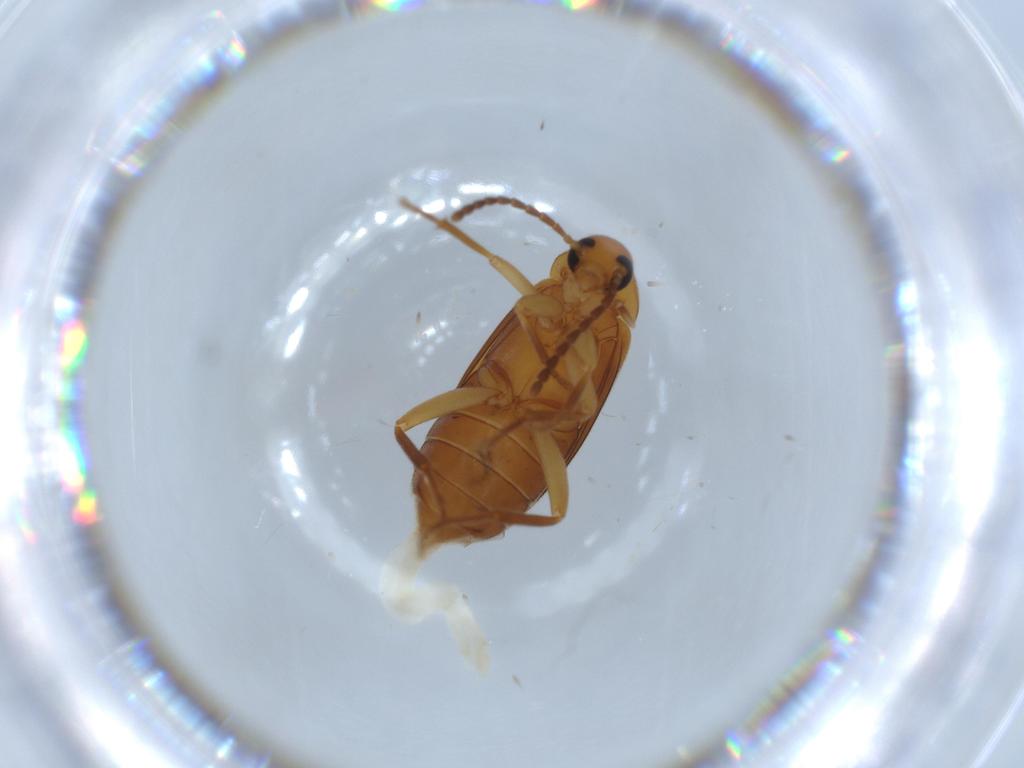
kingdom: Animalia
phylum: Arthropoda
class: Insecta
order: Coleoptera
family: Scraptiidae
